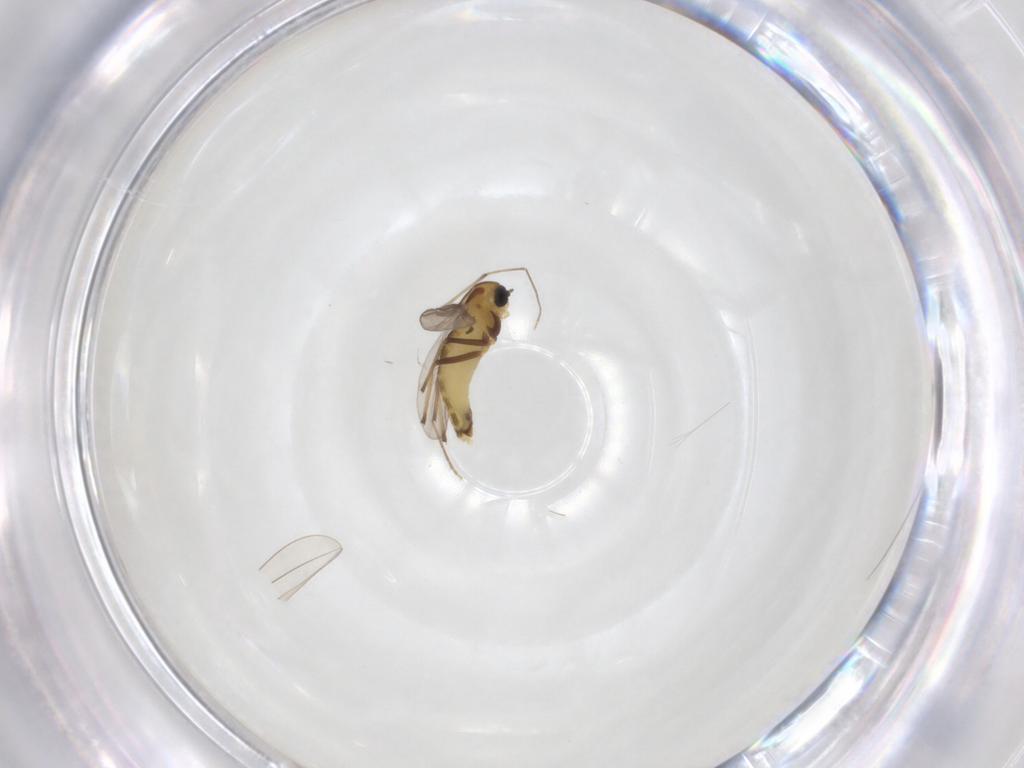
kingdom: Animalia
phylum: Arthropoda
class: Insecta
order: Diptera
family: Chironomidae
